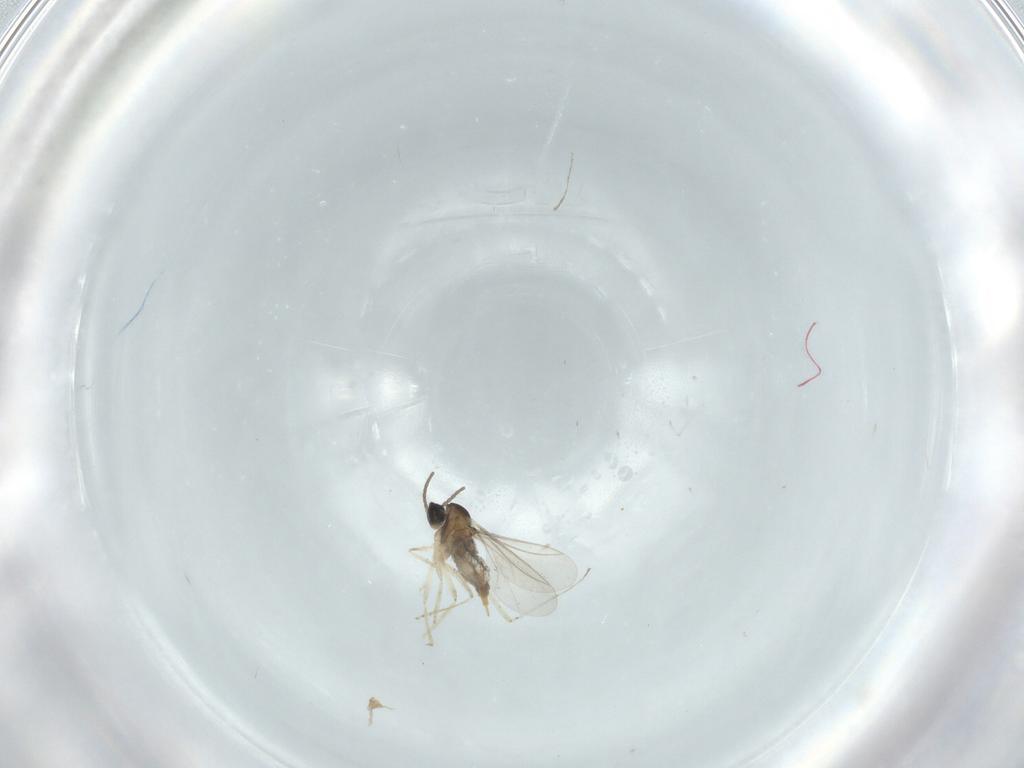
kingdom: Animalia
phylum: Arthropoda
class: Insecta
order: Diptera
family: Cecidomyiidae
